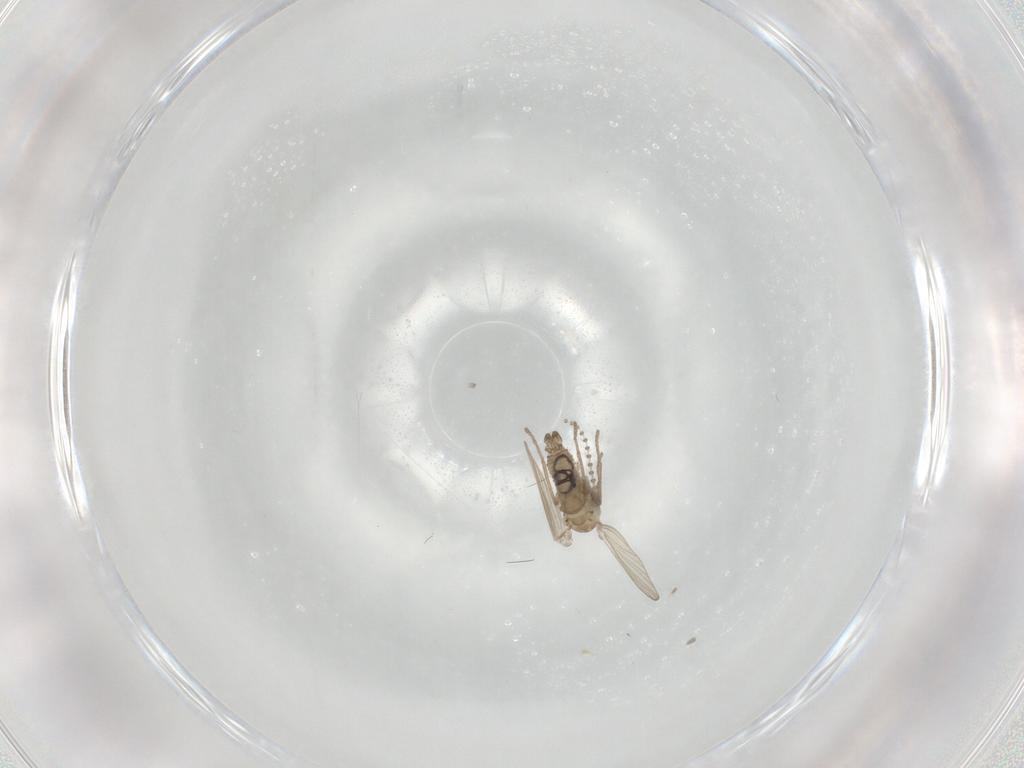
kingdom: Animalia
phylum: Arthropoda
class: Insecta
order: Diptera
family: Psychodidae
